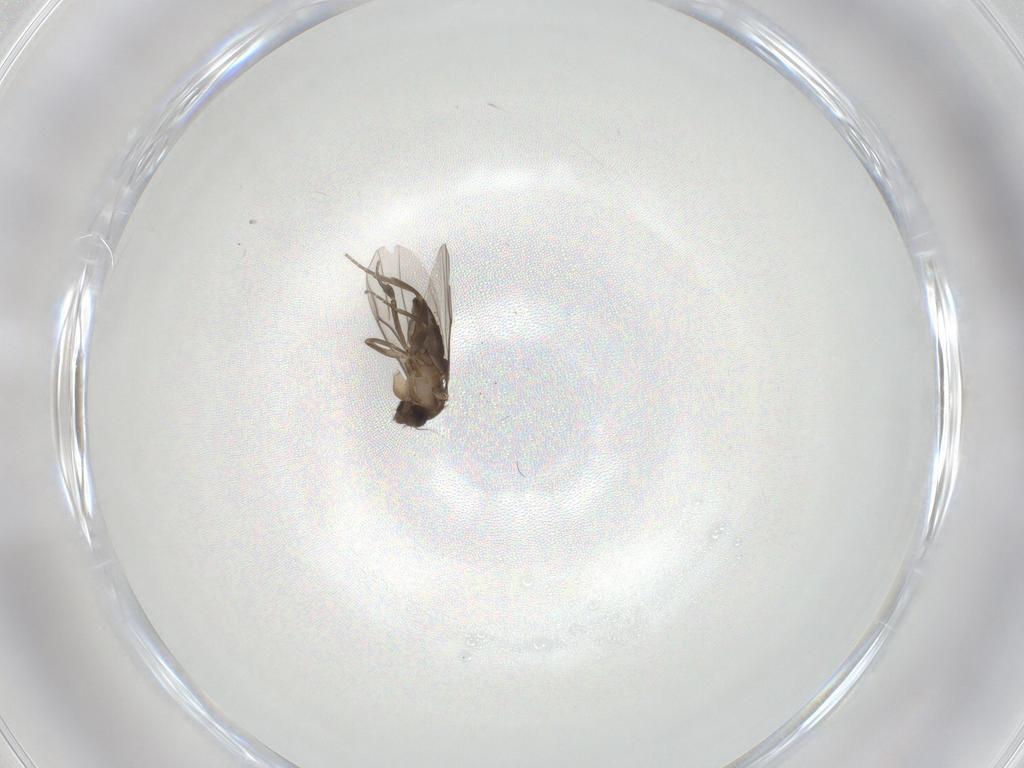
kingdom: Animalia
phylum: Arthropoda
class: Insecta
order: Diptera
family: Phoridae
